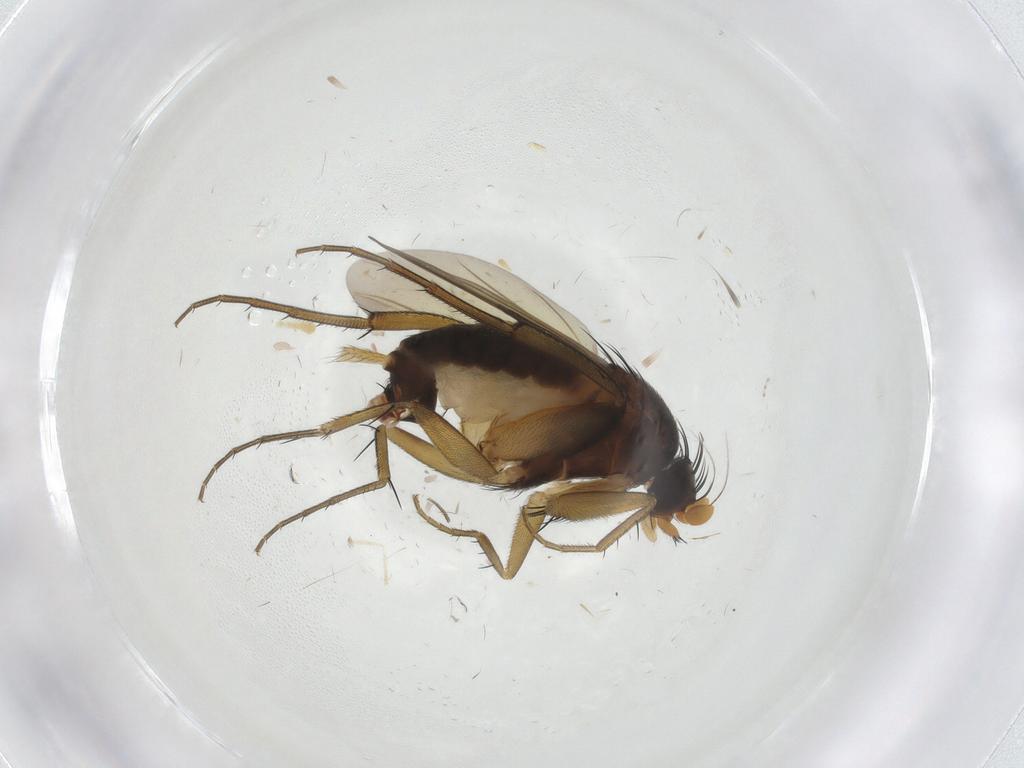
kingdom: Animalia
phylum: Arthropoda
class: Insecta
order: Diptera
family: Phoridae
